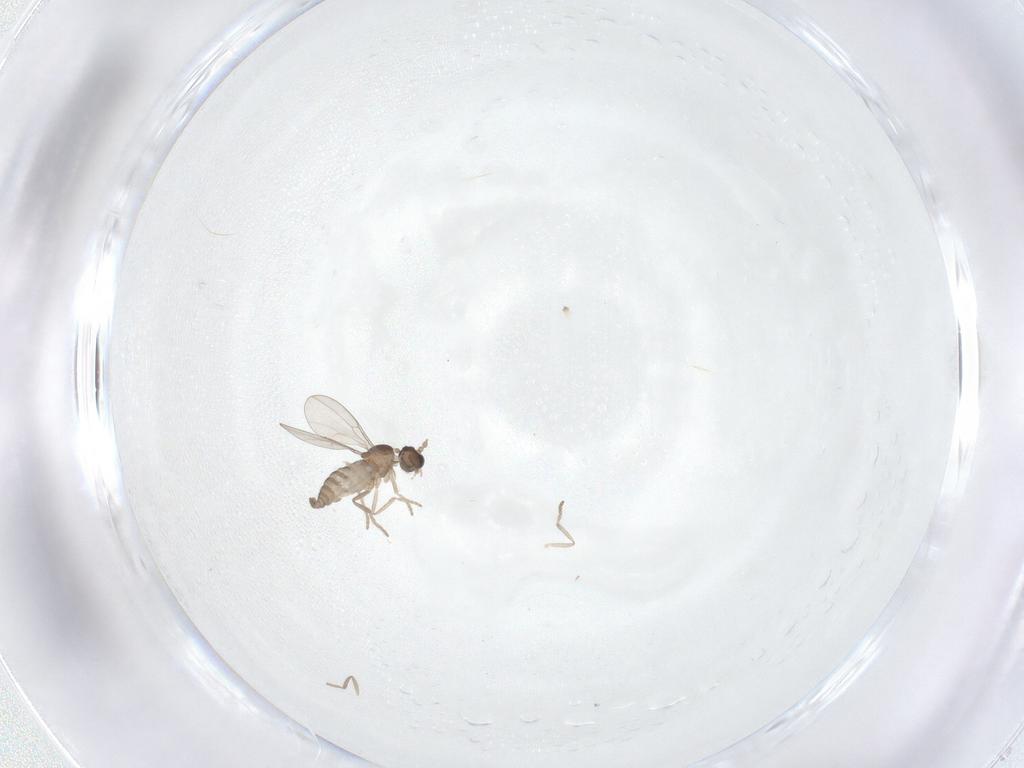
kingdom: Animalia
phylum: Arthropoda
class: Insecta
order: Diptera
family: Cecidomyiidae
